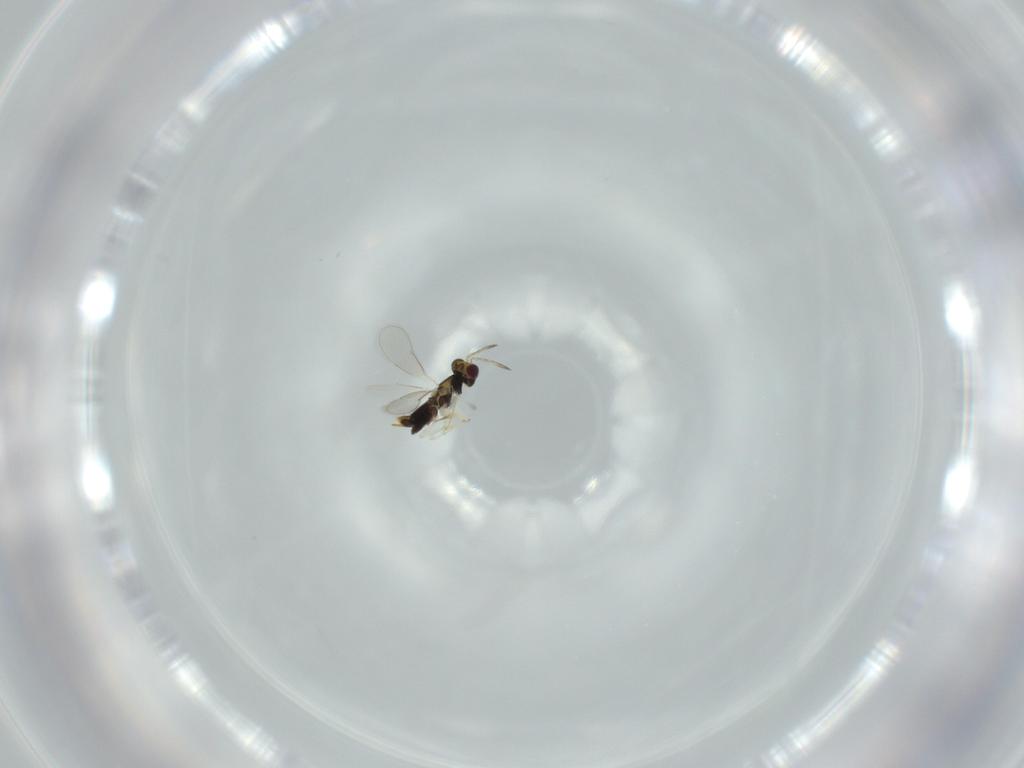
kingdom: Animalia
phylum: Arthropoda
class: Insecta
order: Hymenoptera
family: Aphelinidae
